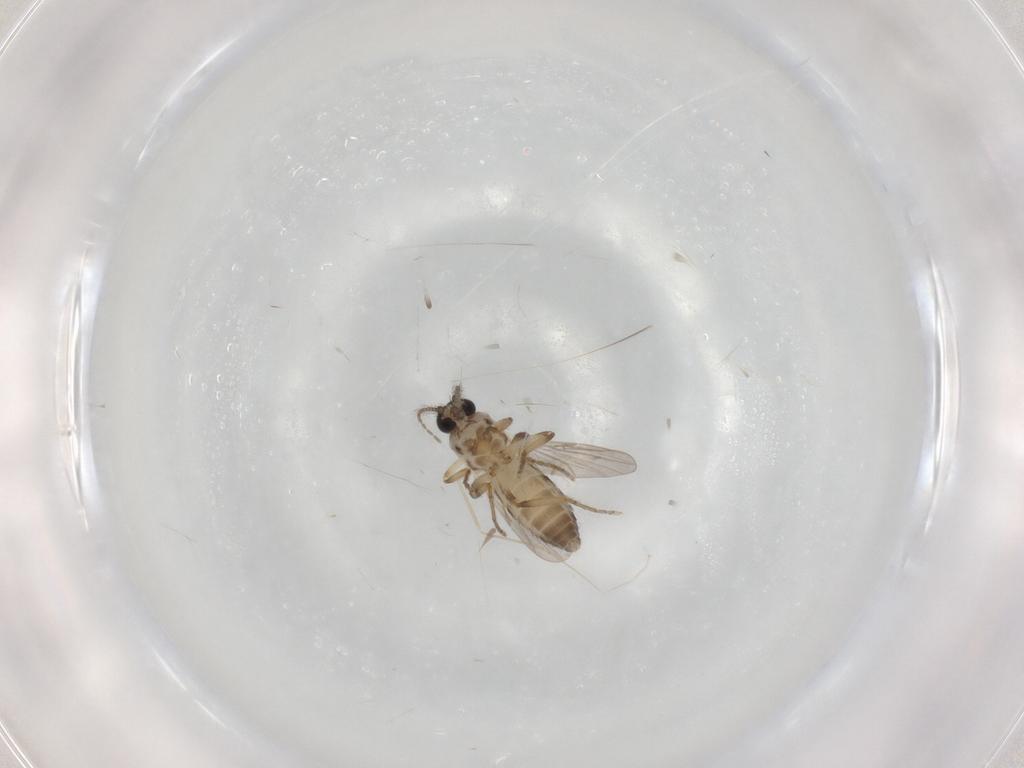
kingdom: Animalia
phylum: Arthropoda
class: Insecta
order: Diptera
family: Ceratopogonidae
